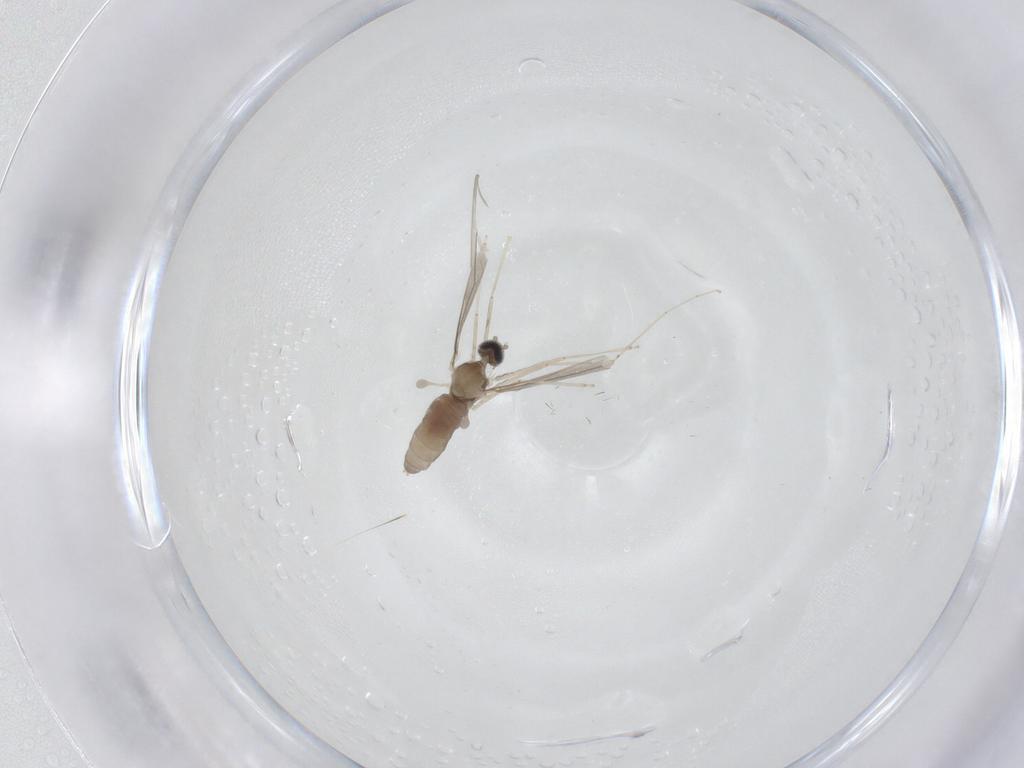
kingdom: Animalia
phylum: Arthropoda
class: Insecta
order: Diptera
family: Cecidomyiidae
